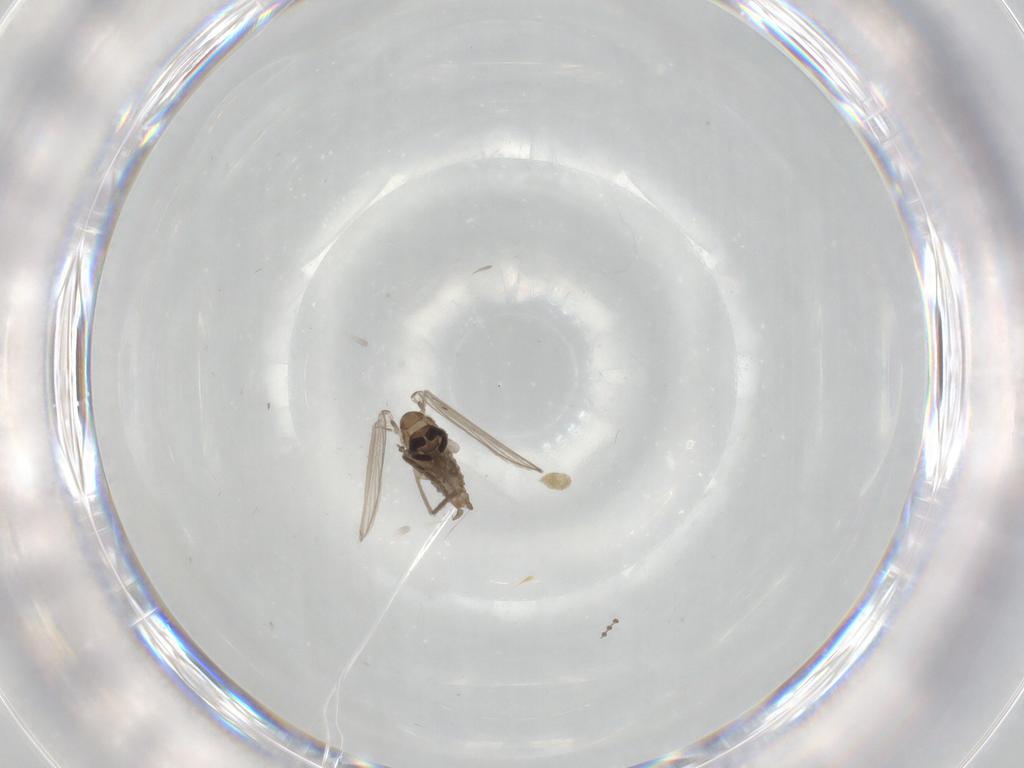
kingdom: Animalia
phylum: Arthropoda
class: Insecta
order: Diptera
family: Psychodidae
